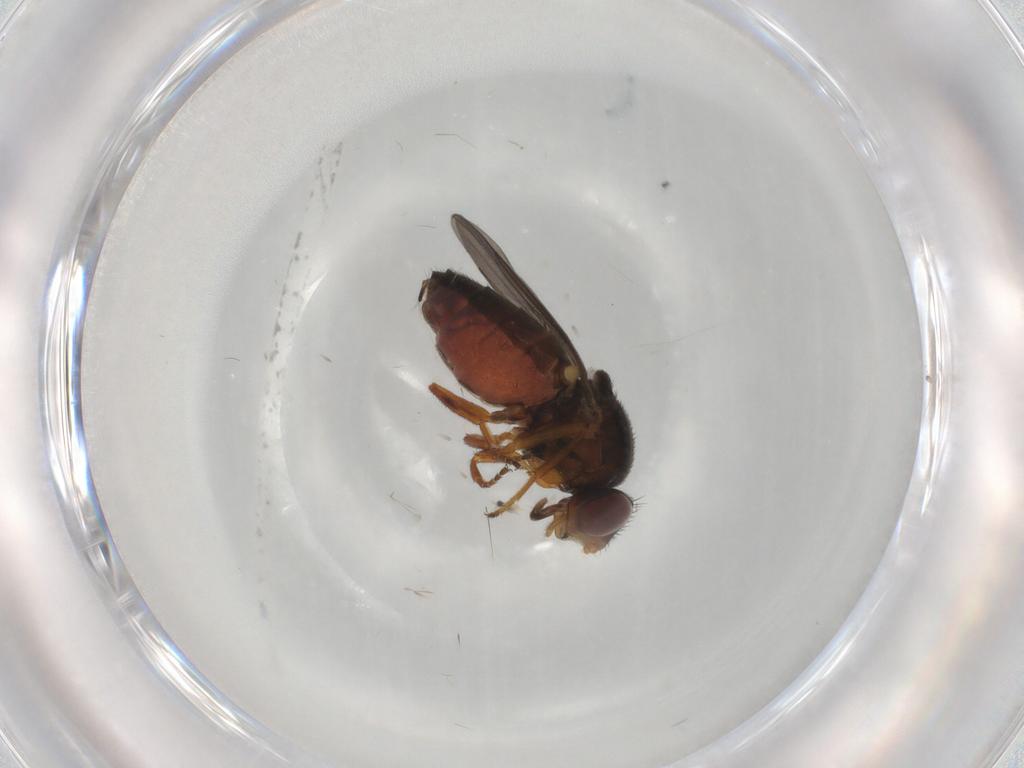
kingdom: Animalia
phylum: Arthropoda
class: Insecta
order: Diptera
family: Chloropidae
